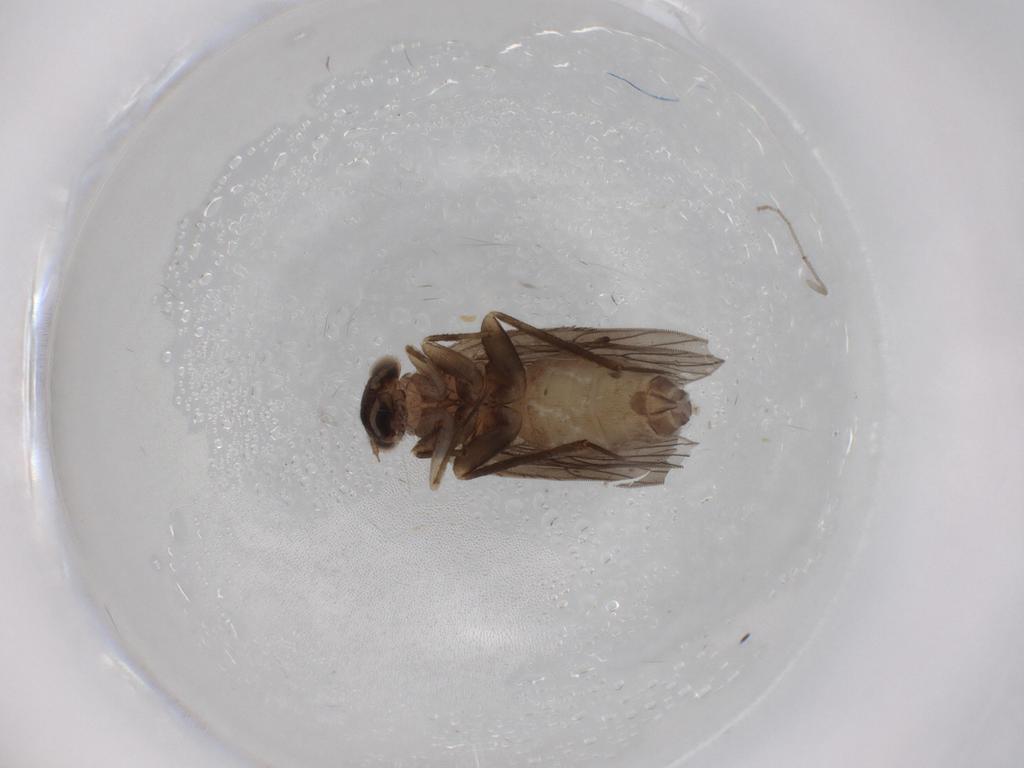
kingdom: Animalia
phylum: Arthropoda
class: Insecta
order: Psocodea
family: Lepidopsocidae
